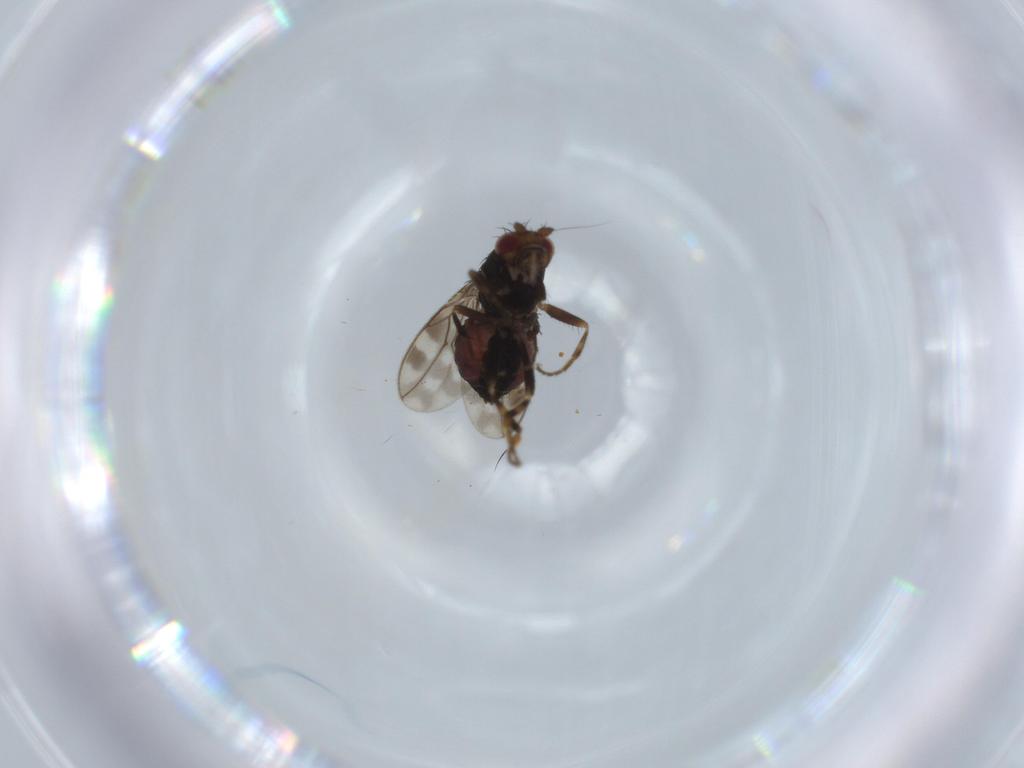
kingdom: Animalia
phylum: Arthropoda
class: Insecta
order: Diptera
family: Sphaeroceridae
